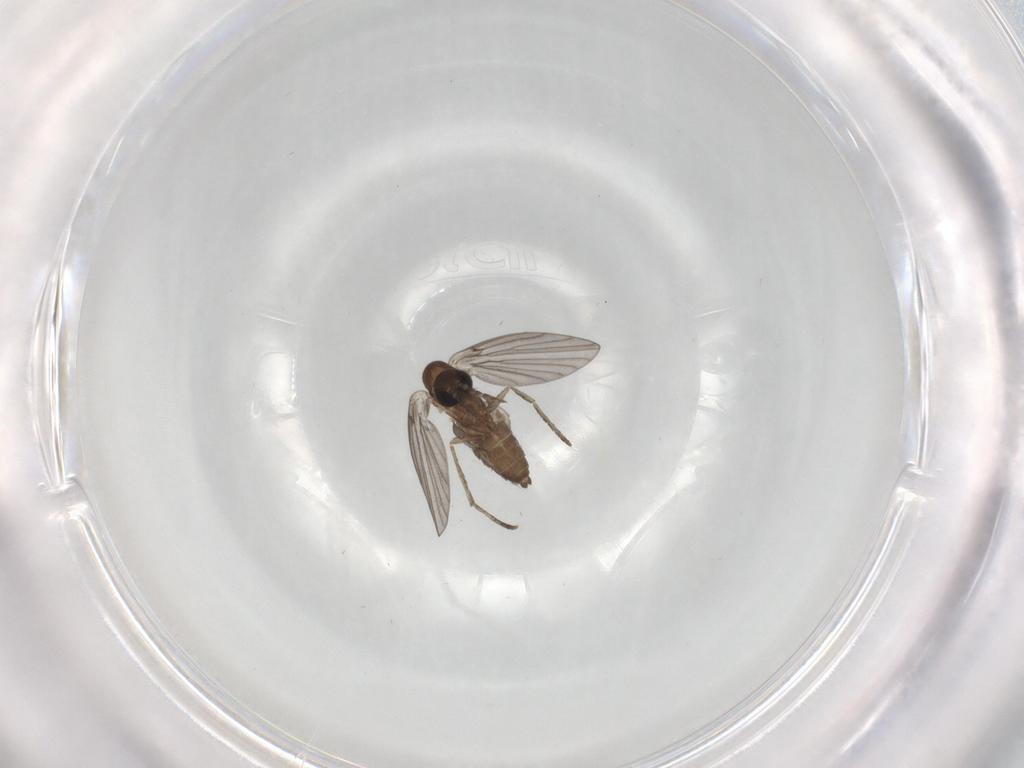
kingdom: Animalia
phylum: Arthropoda
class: Insecta
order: Diptera
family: Psychodidae
